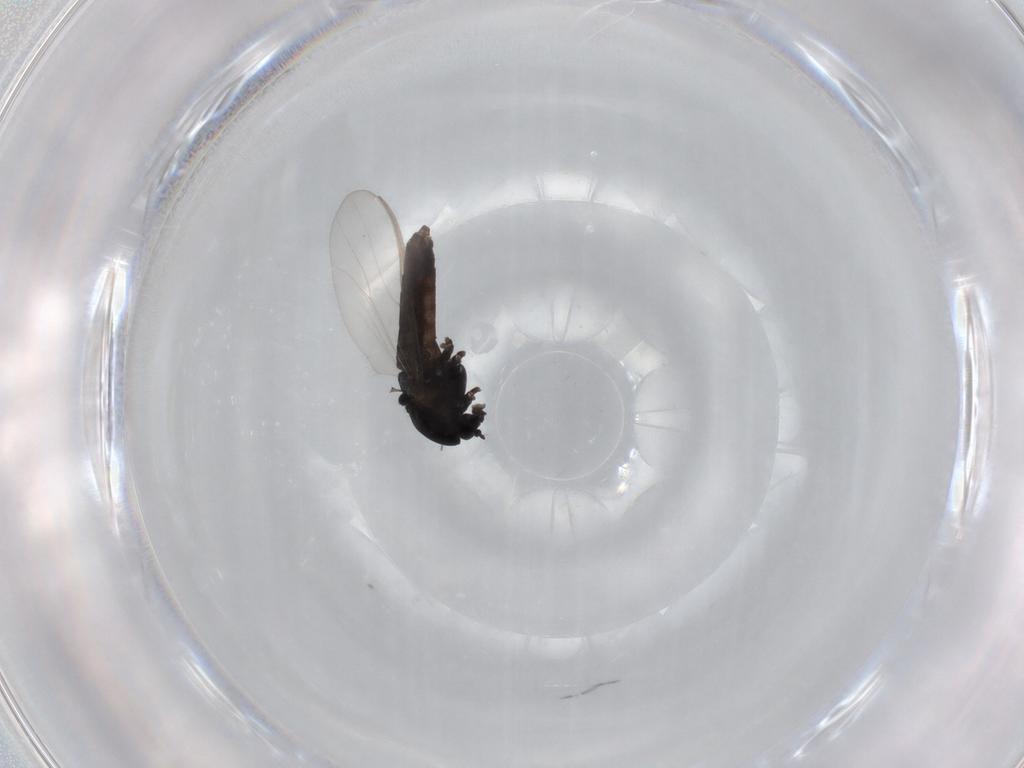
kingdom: Animalia
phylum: Arthropoda
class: Insecta
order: Diptera
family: Chironomidae
